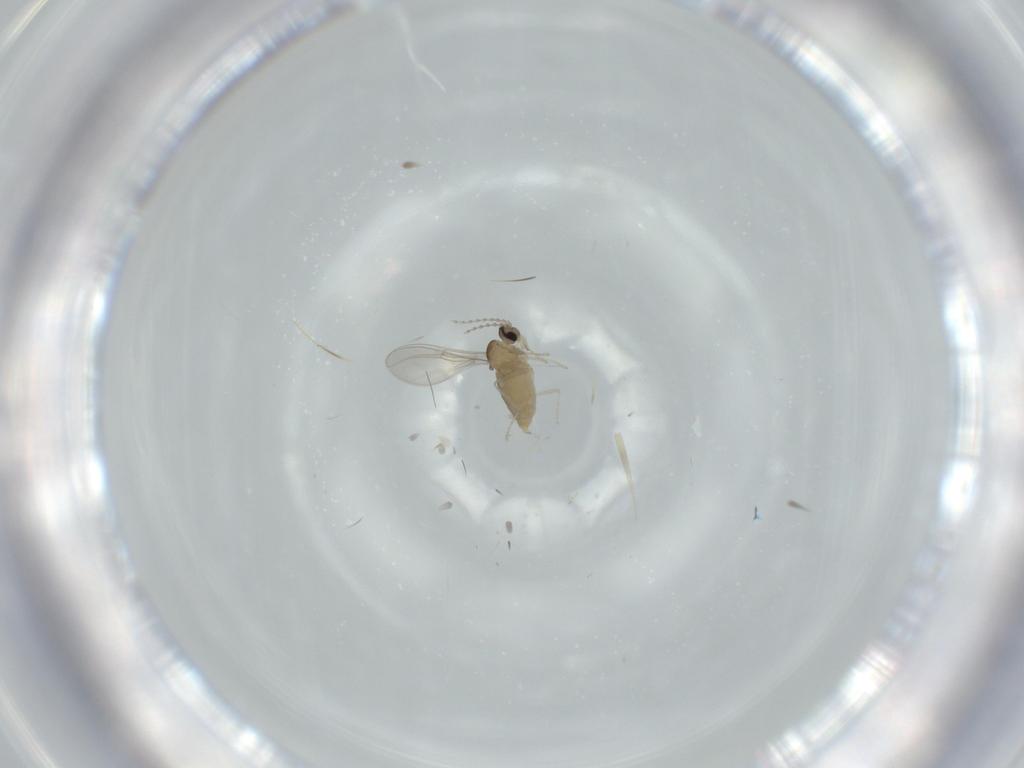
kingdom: Animalia
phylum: Arthropoda
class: Insecta
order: Diptera
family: Cecidomyiidae
